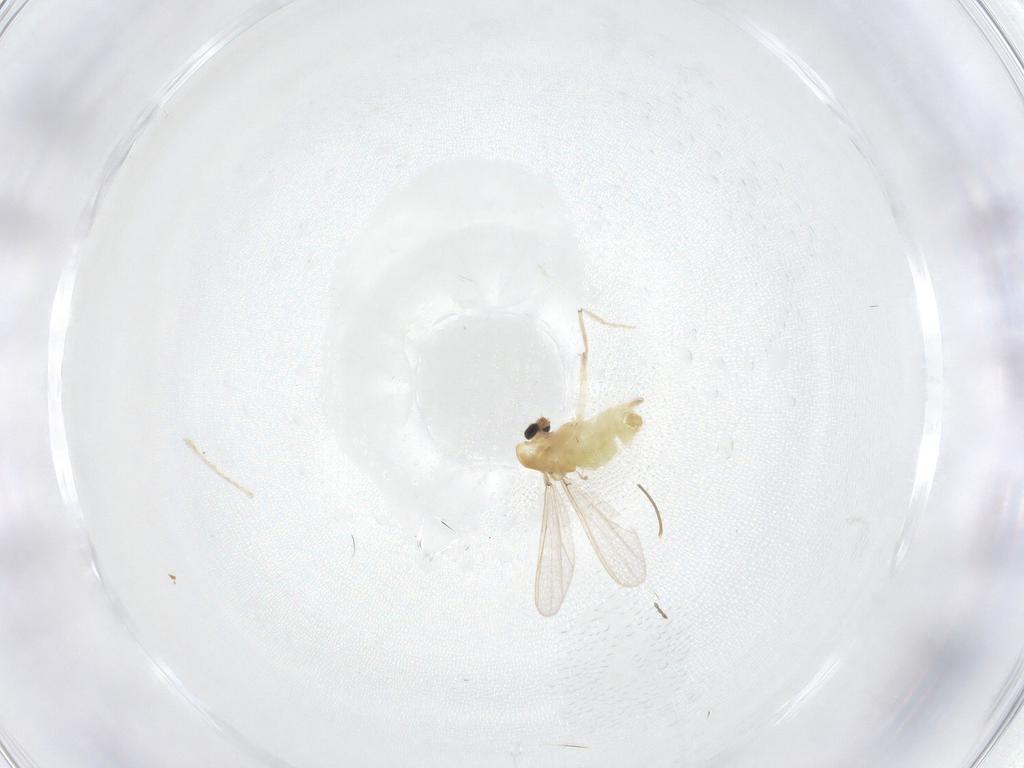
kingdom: Animalia
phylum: Arthropoda
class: Insecta
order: Diptera
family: Cecidomyiidae
